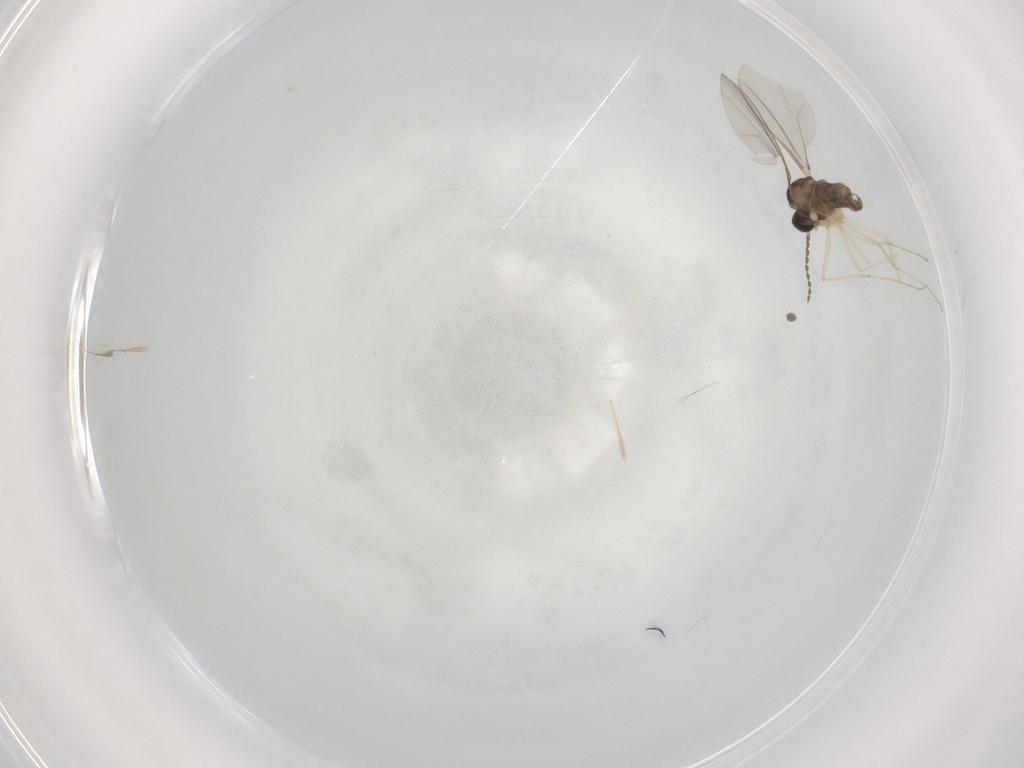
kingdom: Animalia
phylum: Arthropoda
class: Insecta
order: Diptera
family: Cecidomyiidae
